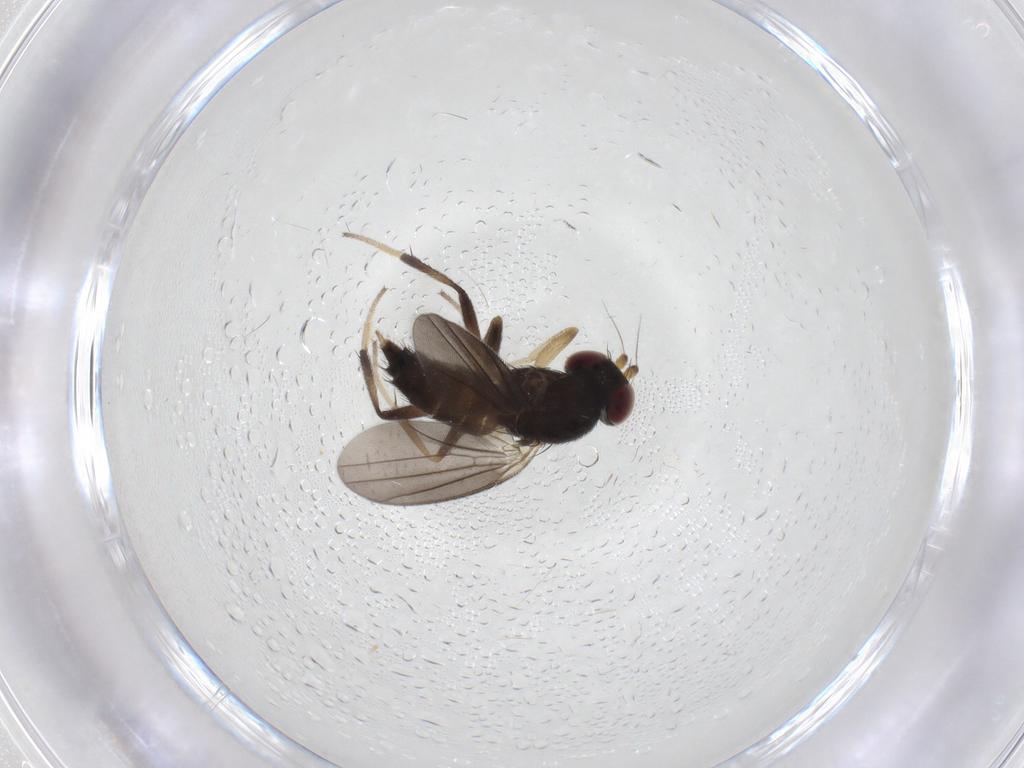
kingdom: Animalia
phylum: Arthropoda
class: Insecta
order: Diptera
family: Clusiidae
